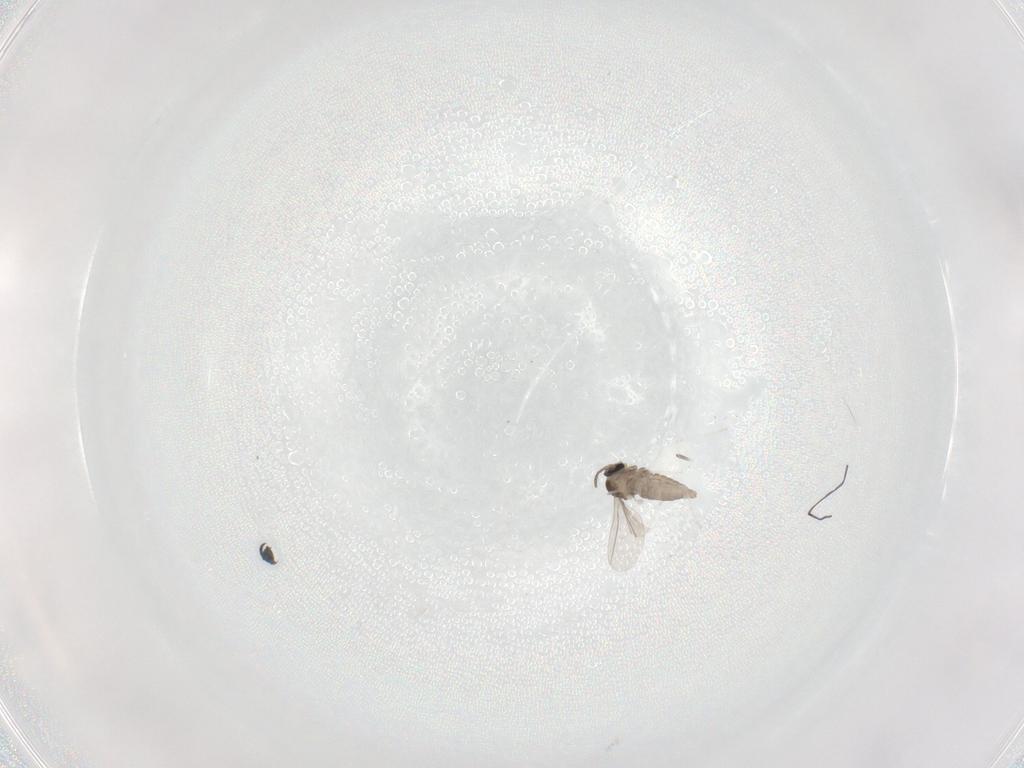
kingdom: Animalia
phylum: Arthropoda
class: Insecta
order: Diptera
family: Cecidomyiidae
